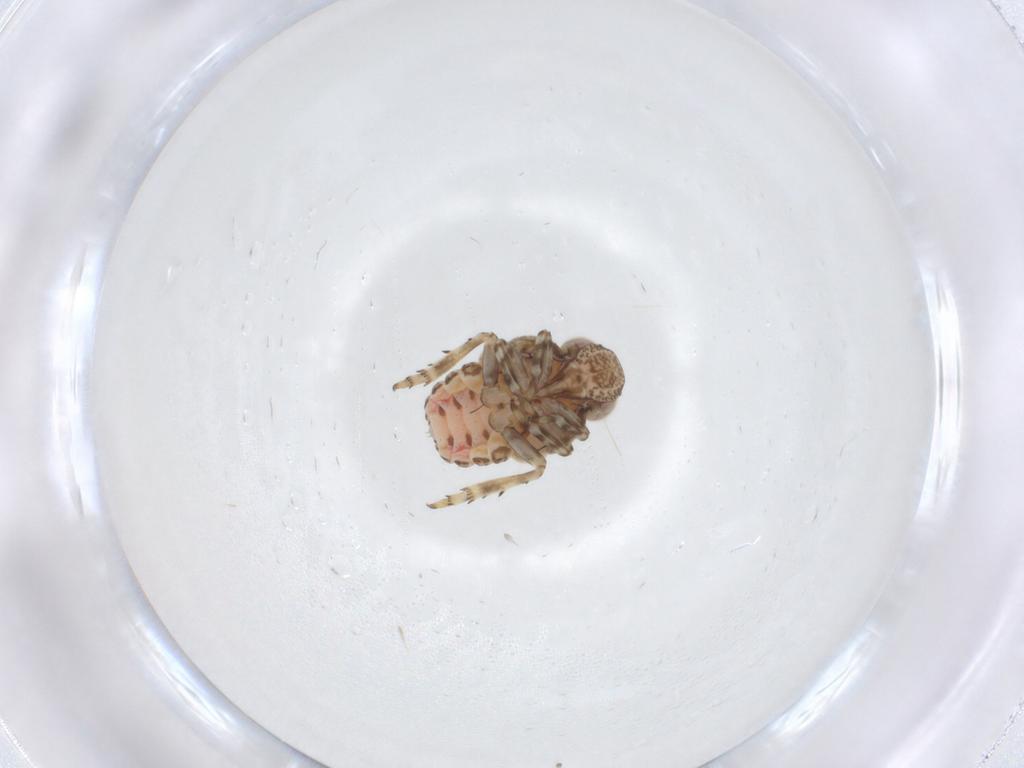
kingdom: Animalia
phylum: Arthropoda
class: Insecta
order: Hemiptera
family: Issidae
